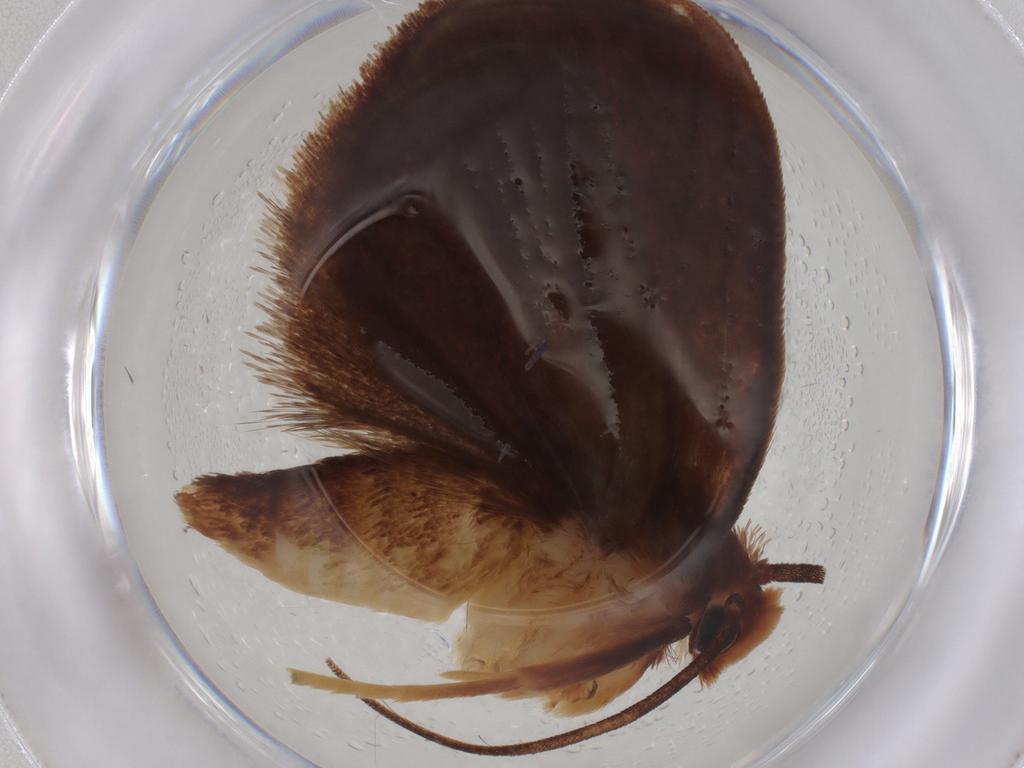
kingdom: Animalia
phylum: Arthropoda
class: Insecta
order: Lepidoptera
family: Limacodidae
